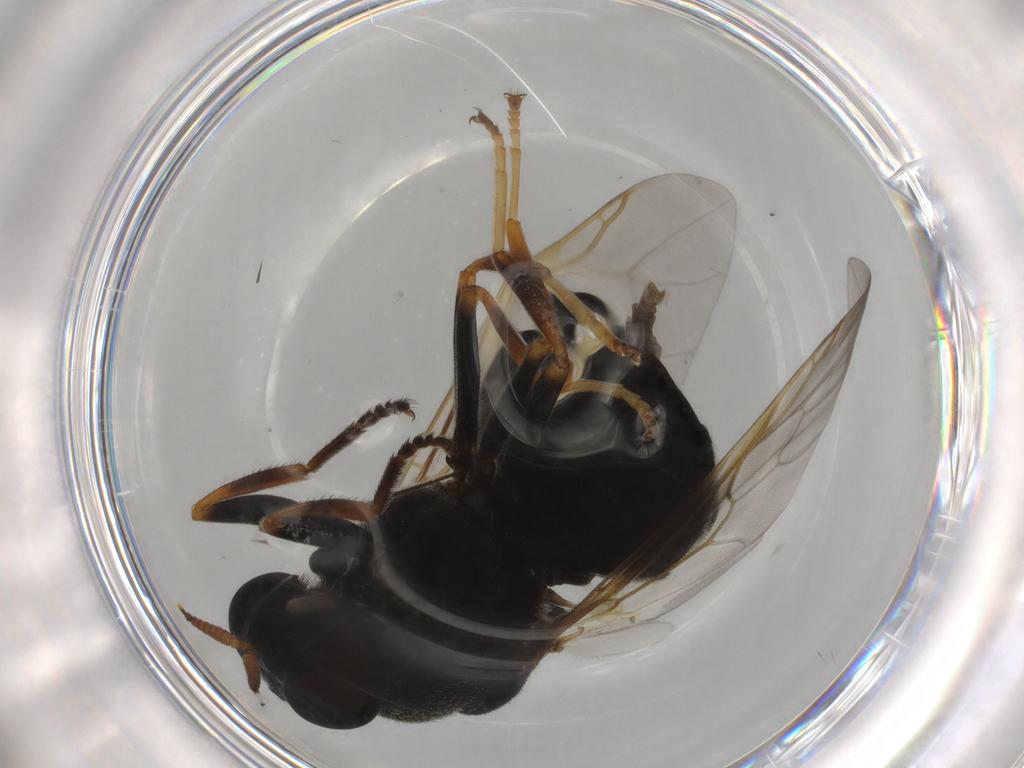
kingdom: Animalia
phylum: Arthropoda
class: Insecta
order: Diptera
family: Stratiomyidae
